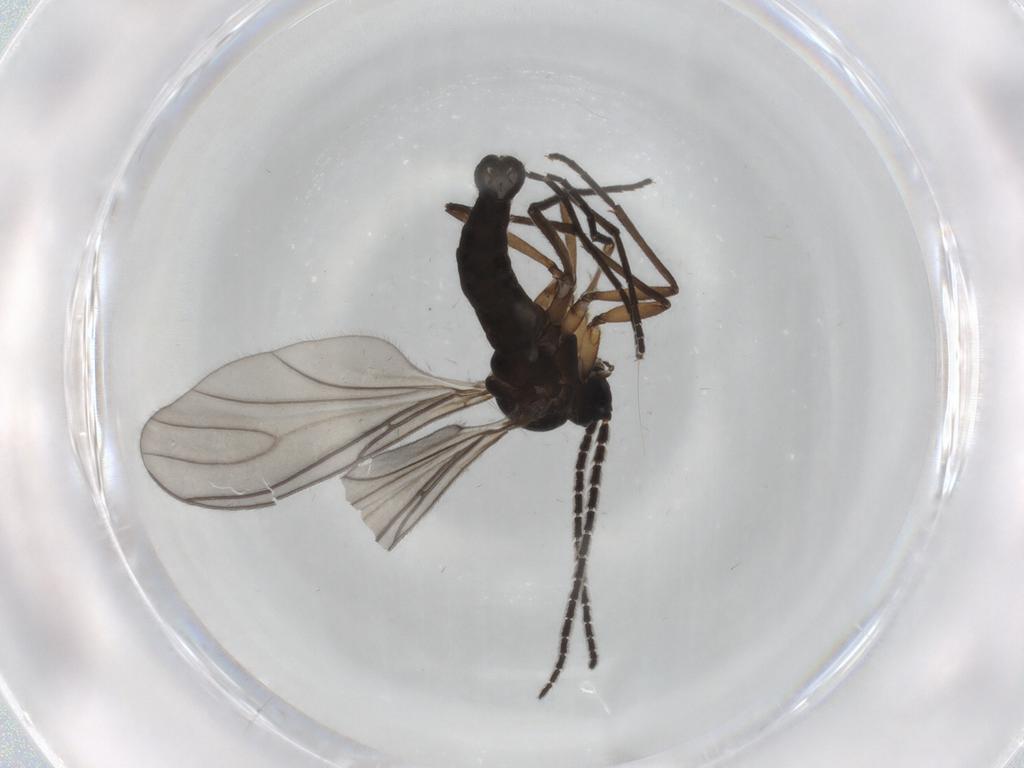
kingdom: Animalia
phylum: Arthropoda
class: Insecta
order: Diptera
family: Sciaridae
